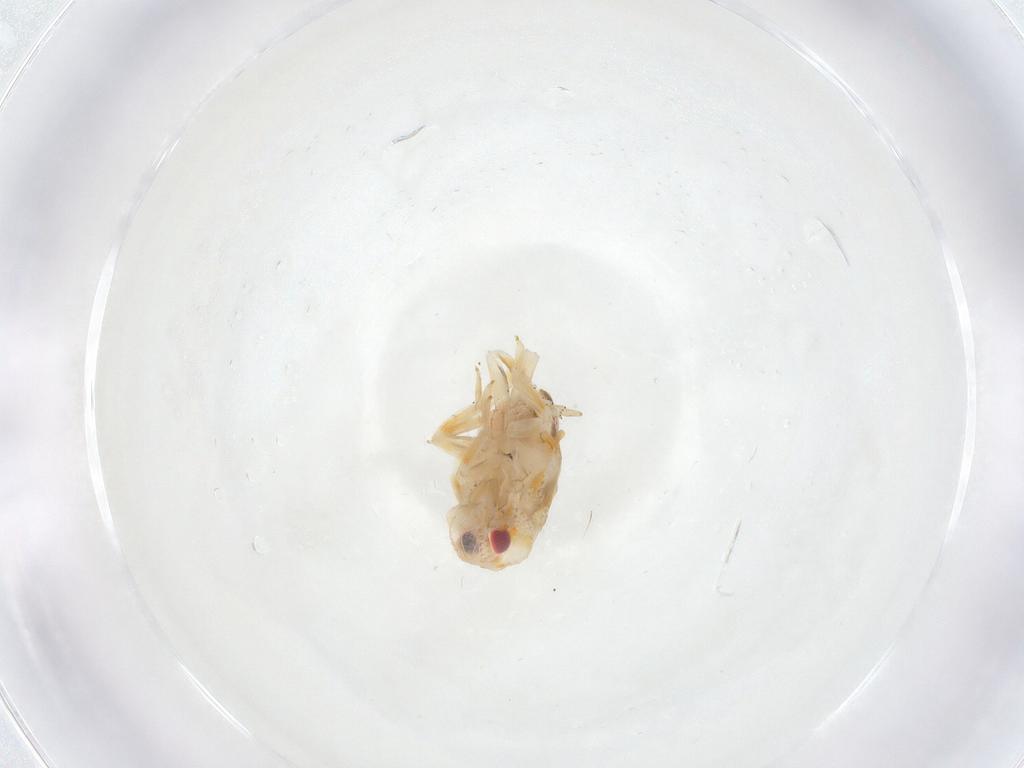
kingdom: Animalia
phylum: Arthropoda
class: Insecta
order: Hemiptera
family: Flatidae
